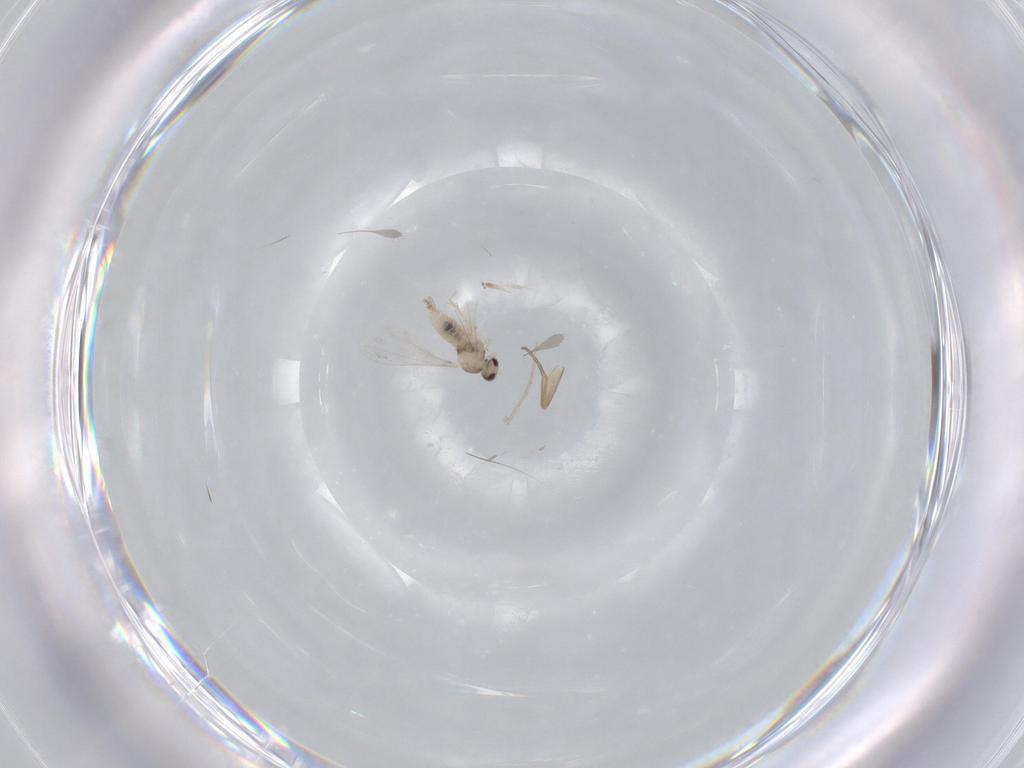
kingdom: Animalia
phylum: Arthropoda
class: Insecta
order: Diptera
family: Cecidomyiidae
